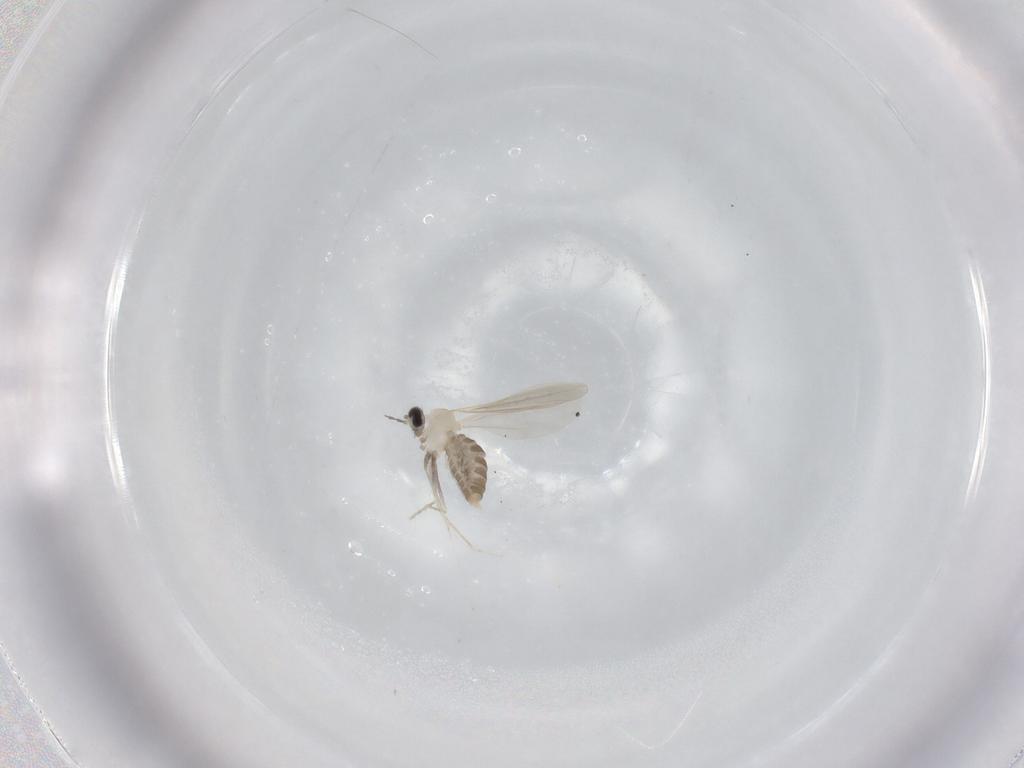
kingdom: Animalia
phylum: Arthropoda
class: Insecta
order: Diptera
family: Cecidomyiidae
